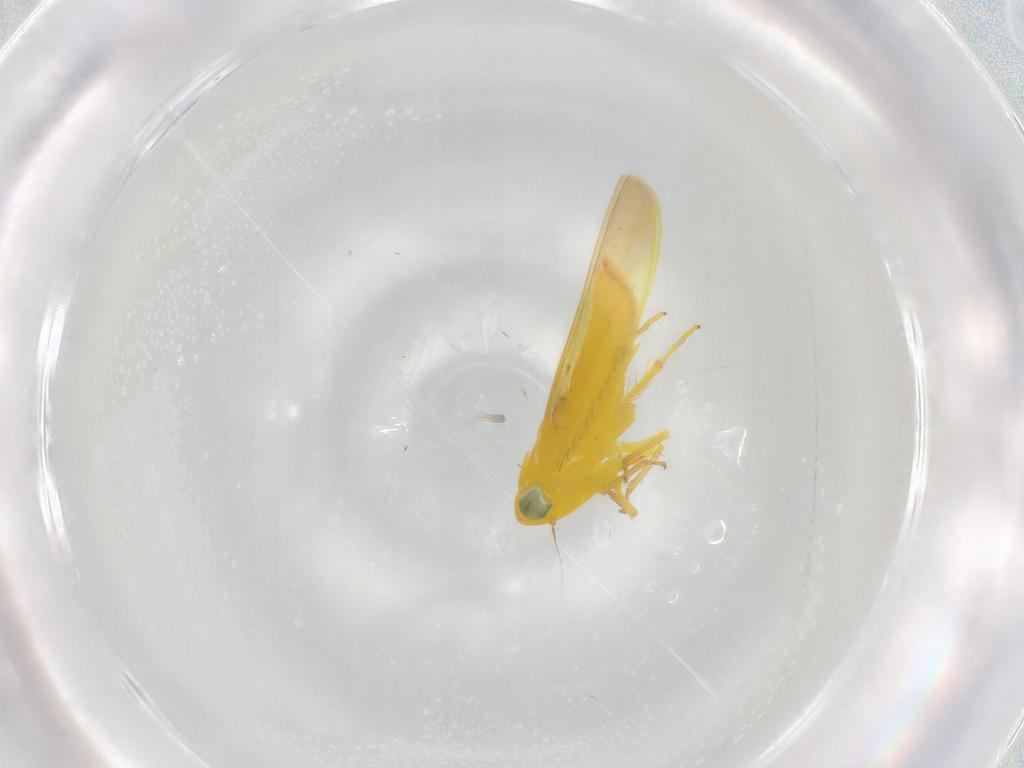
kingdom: Animalia
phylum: Arthropoda
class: Insecta
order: Hemiptera
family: Cicadellidae
